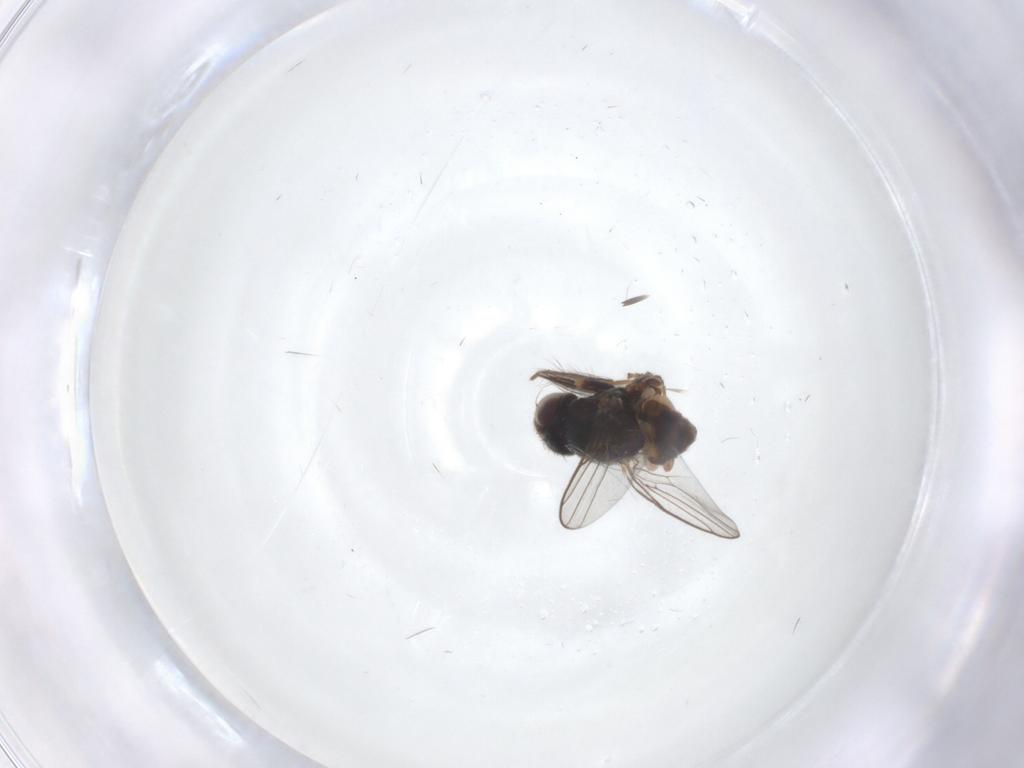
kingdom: Animalia
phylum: Arthropoda
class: Insecta
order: Diptera
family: Chloropidae
